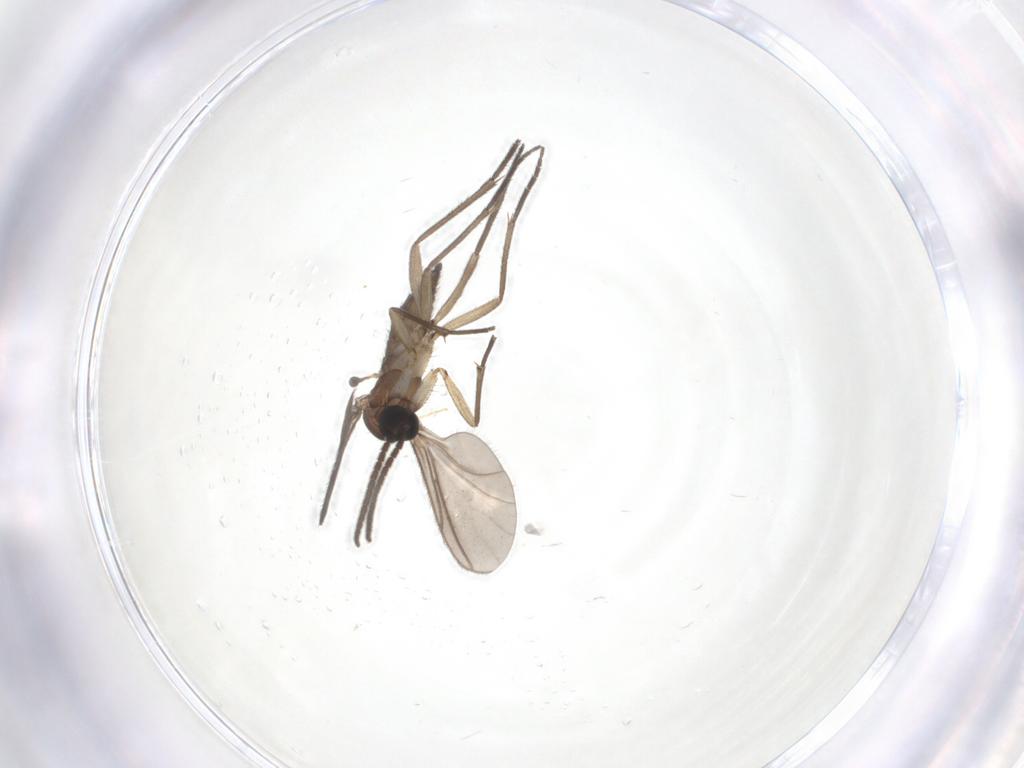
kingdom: Animalia
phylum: Arthropoda
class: Insecta
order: Diptera
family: Sciaridae
